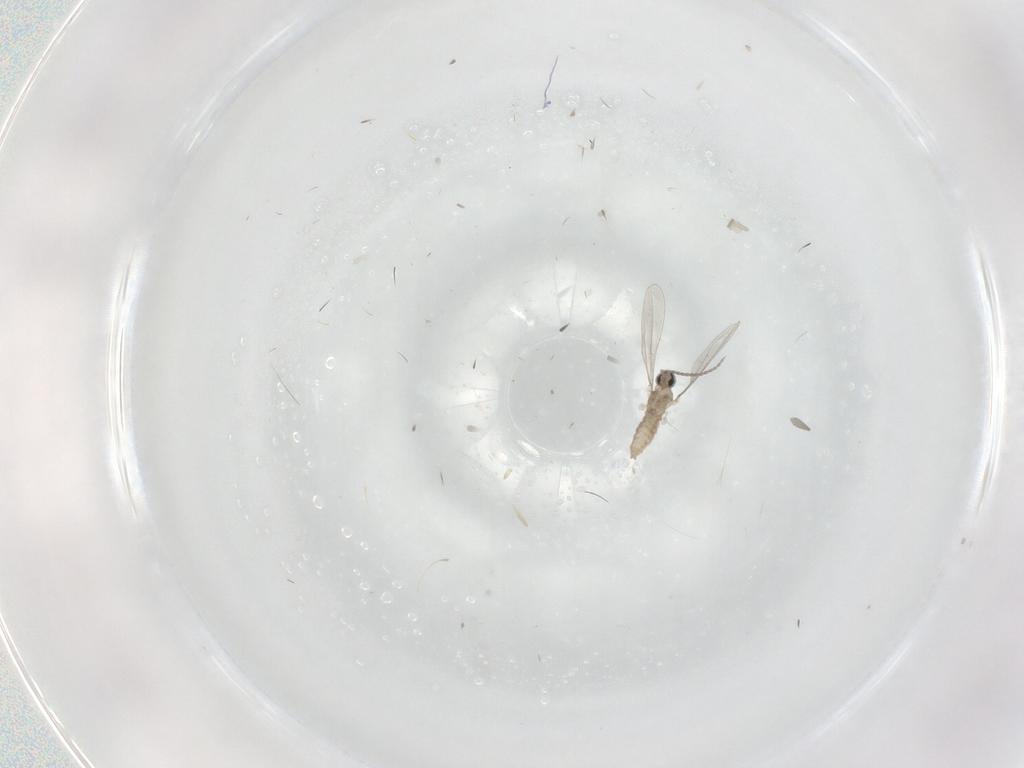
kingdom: Animalia
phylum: Arthropoda
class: Insecta
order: Diptera
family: Cecidomyiidae
